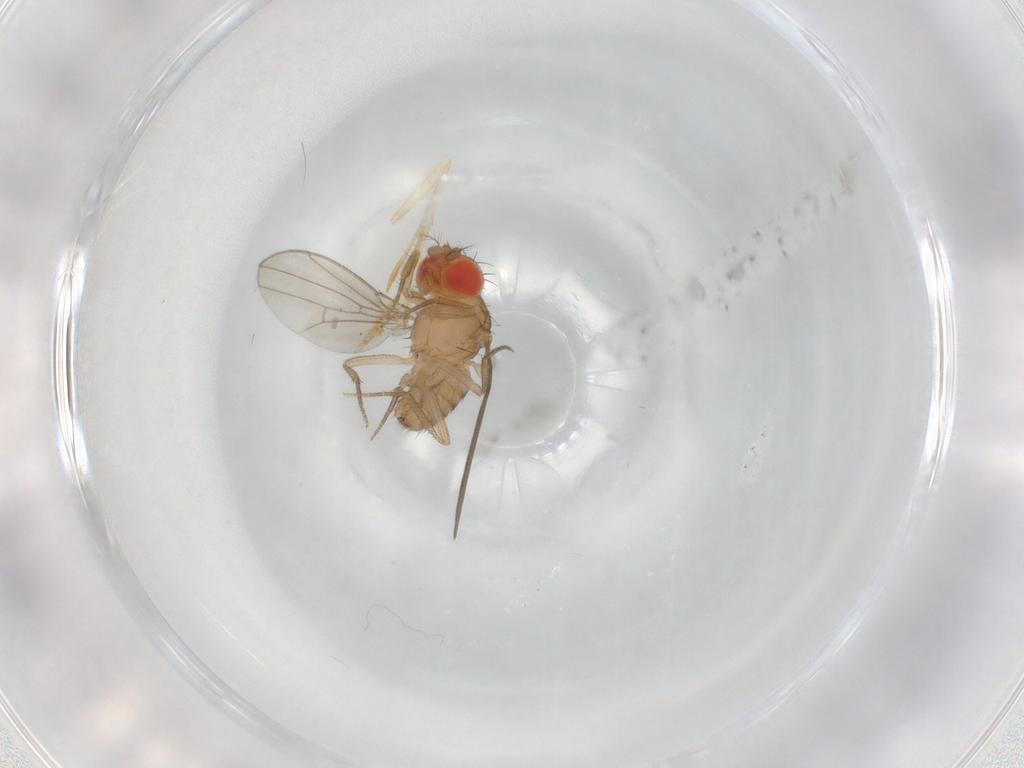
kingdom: Animalia
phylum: Arthropoda
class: Insecta
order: Diptera
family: Drosophilidae
